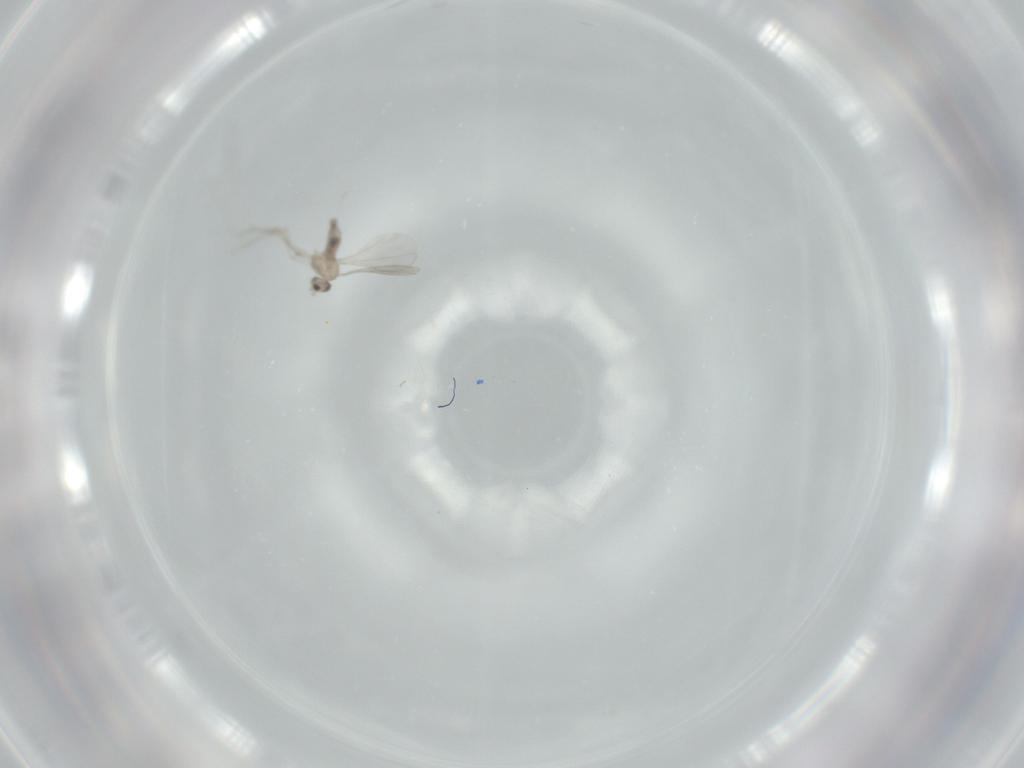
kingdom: Animalia
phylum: Arthropoda
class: Insecta
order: Diptera
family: Cecidomyiidae
